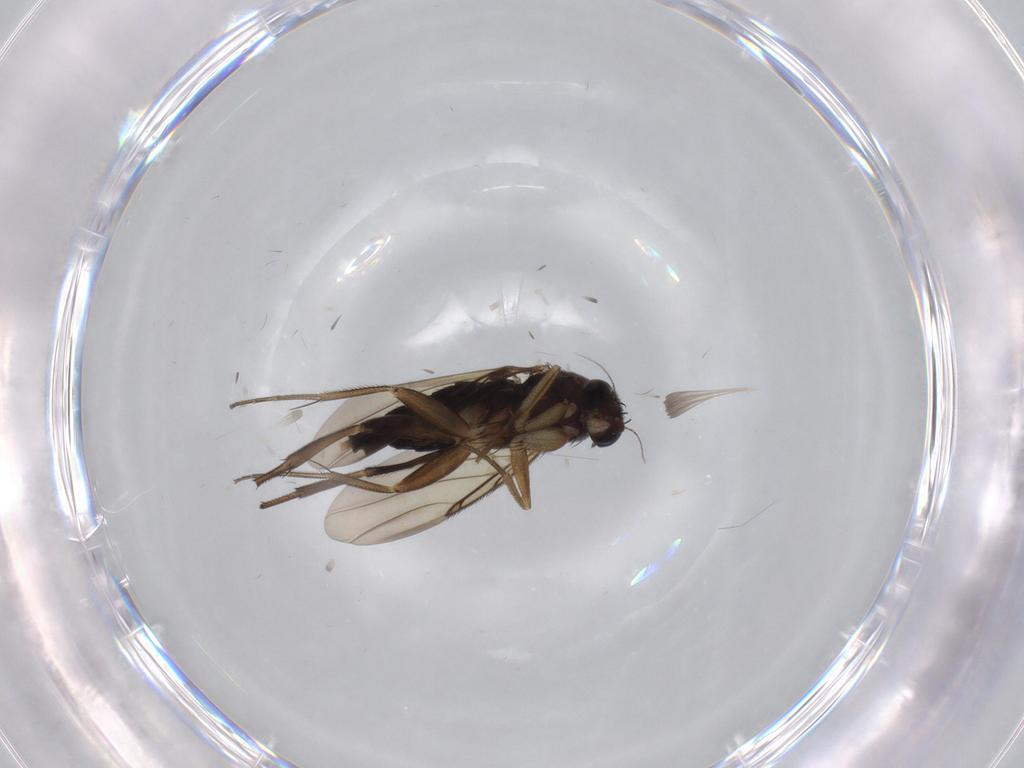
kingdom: Animalia
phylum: Arthropoda
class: Insecta
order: Diptera
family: Phoridae
